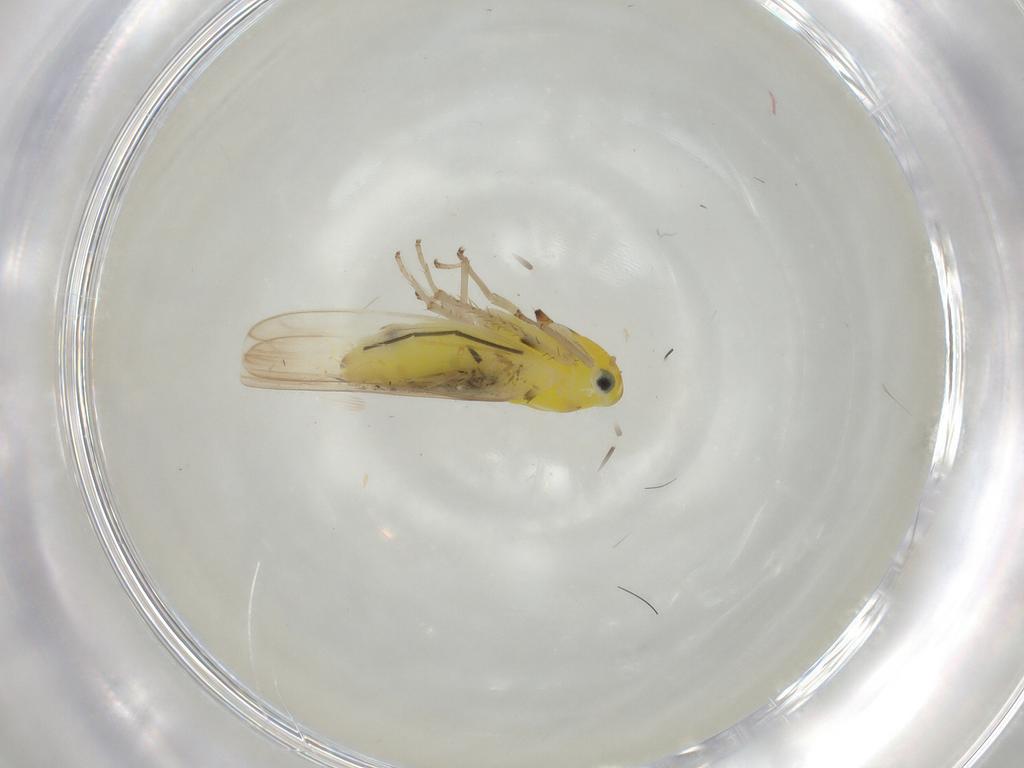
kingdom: Animalia
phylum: Arthropoda
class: Insecta
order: Hemiptera
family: Cicadellidae
